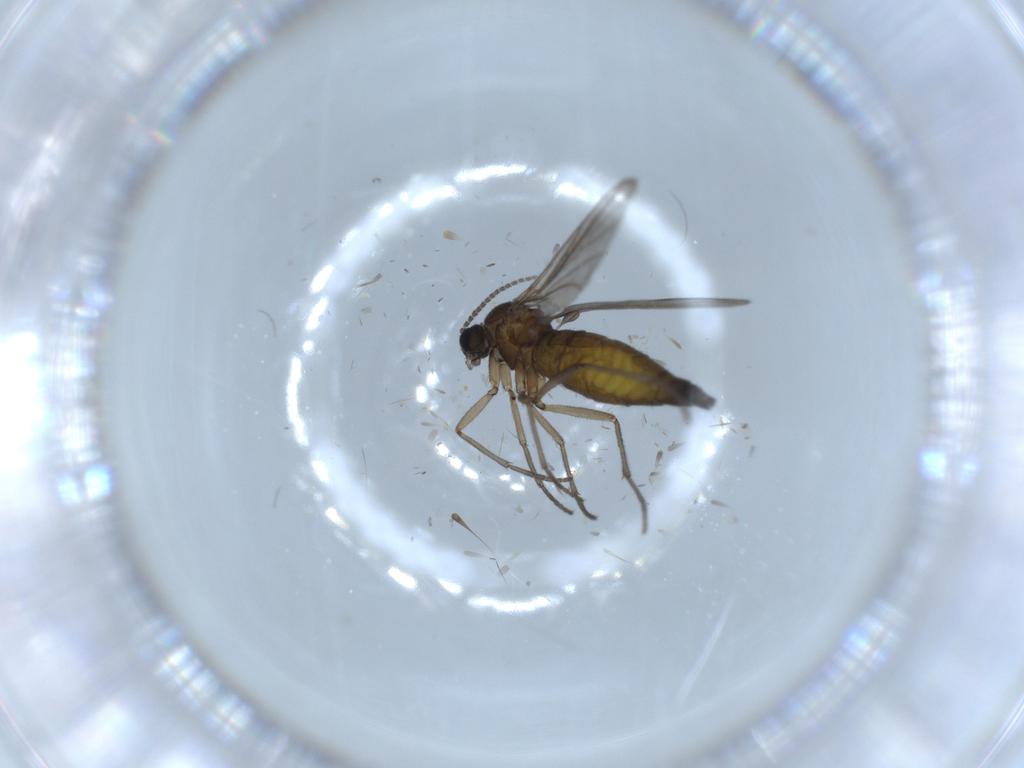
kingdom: Animalia
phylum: Arthropoda
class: Insecta
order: Diptera
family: Sciaridae
